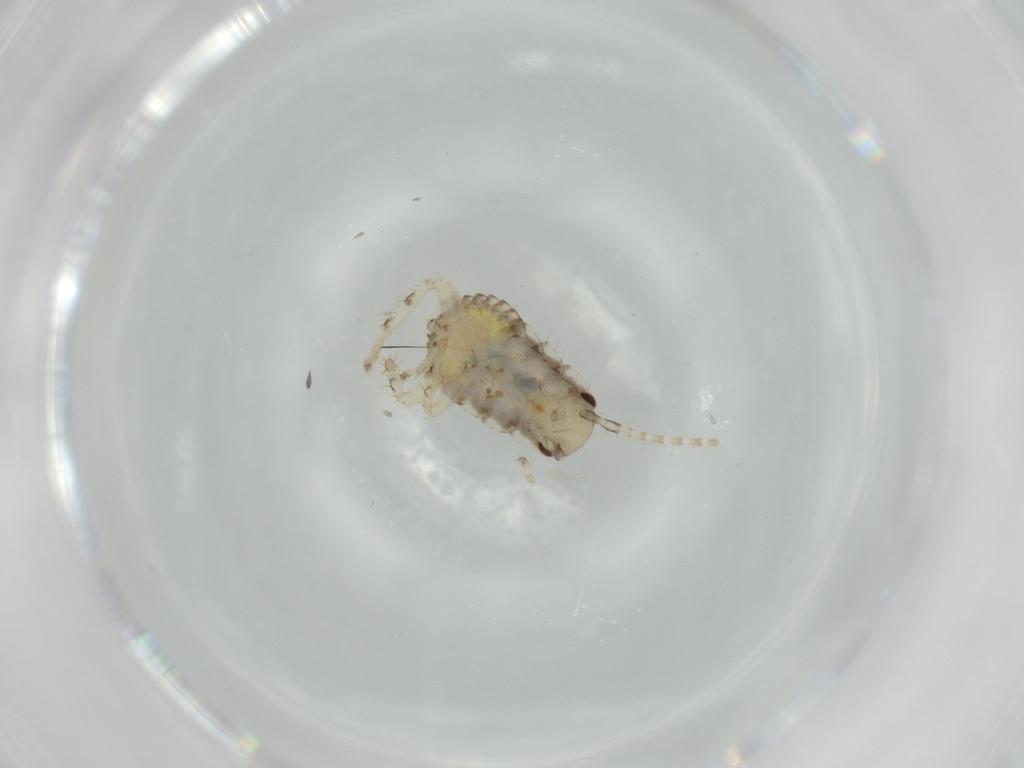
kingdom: Animalia
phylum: Arthropoda
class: Insecta
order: Blattodea
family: Ectobiidae
